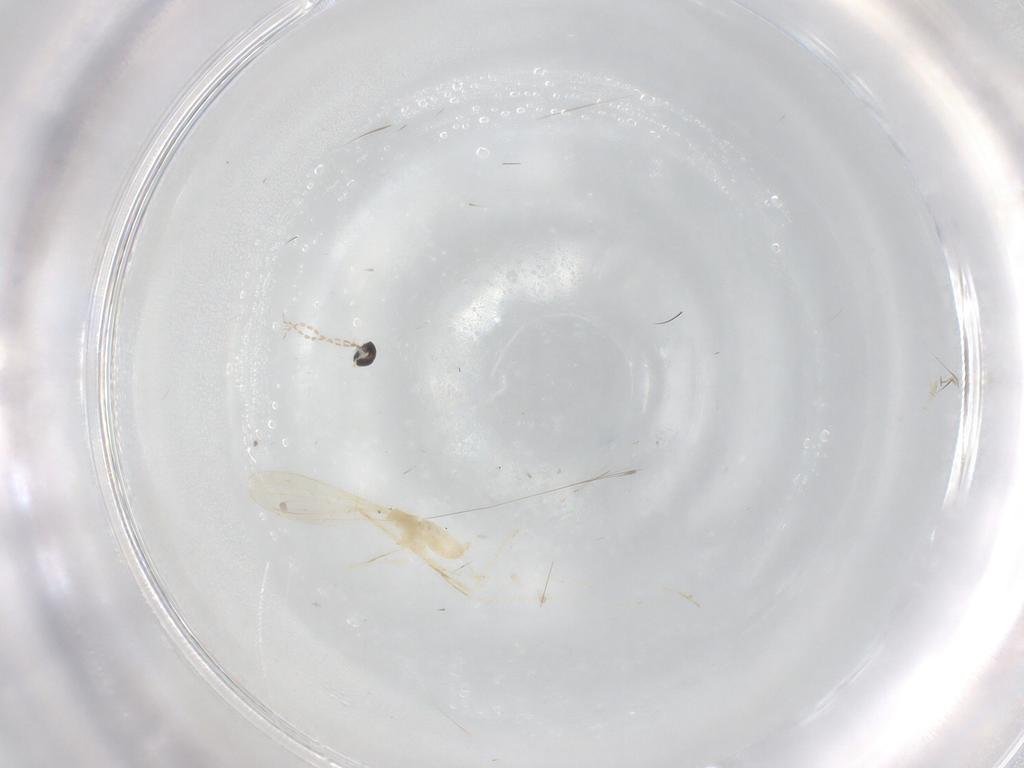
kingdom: Animalia
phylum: Arthropoda
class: Insecta
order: Diptera
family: Cecidomyiidae
